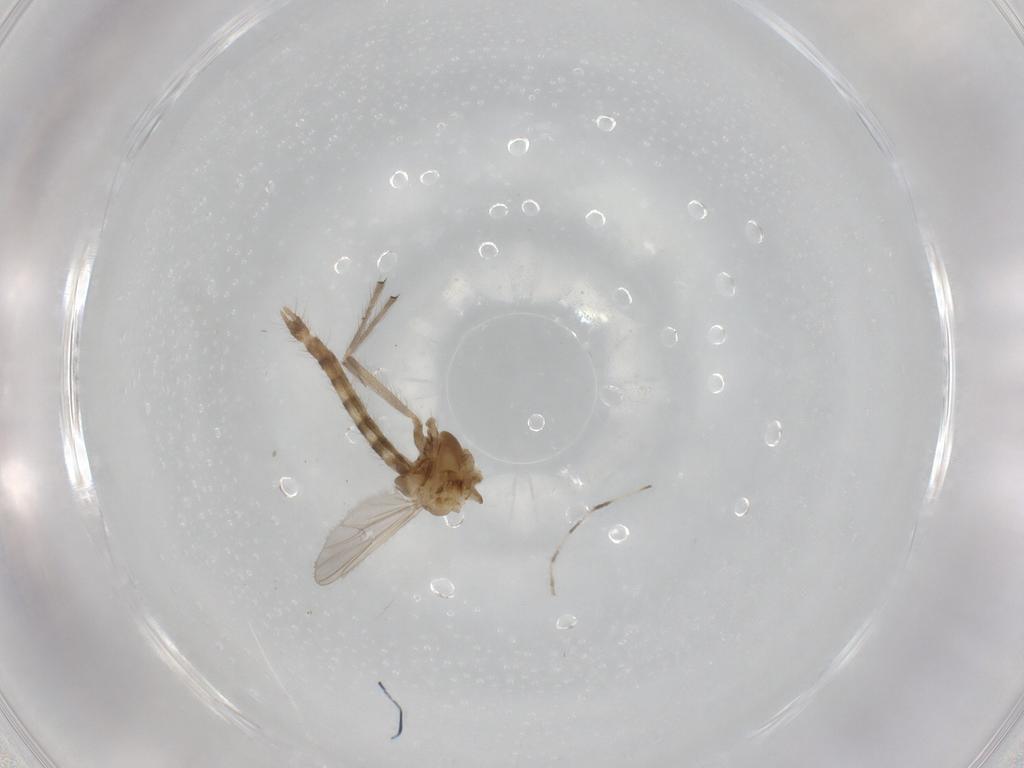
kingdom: Animalia
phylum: Arthropoda
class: Insecta
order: Diptera
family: Chironomidae
